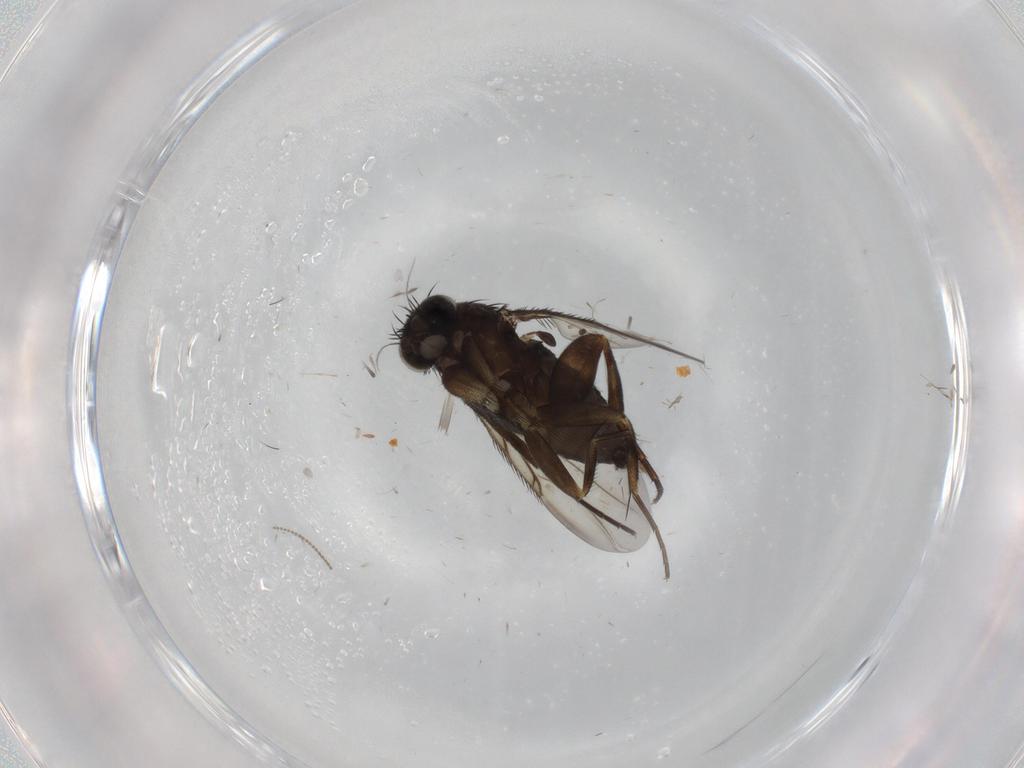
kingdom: Animalia
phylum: Arthropoda
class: Insecta
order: Diptera
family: Phoridae
